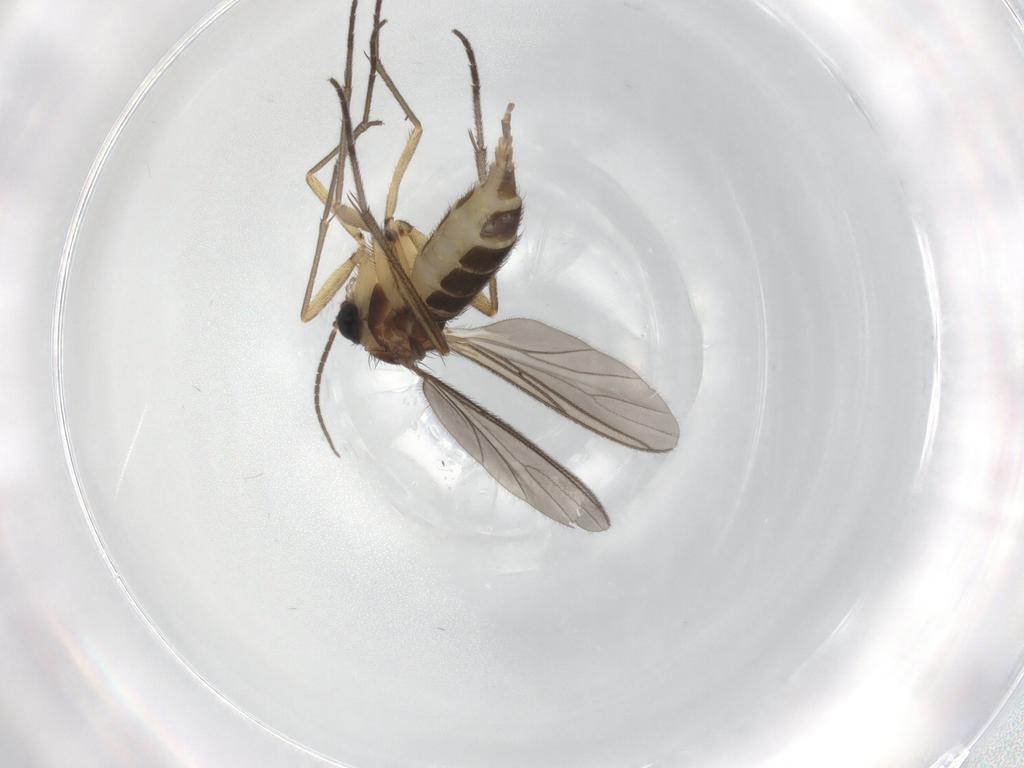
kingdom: Animalia
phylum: Arthropoda
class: Insecta
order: Diptera
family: Sciaridae
